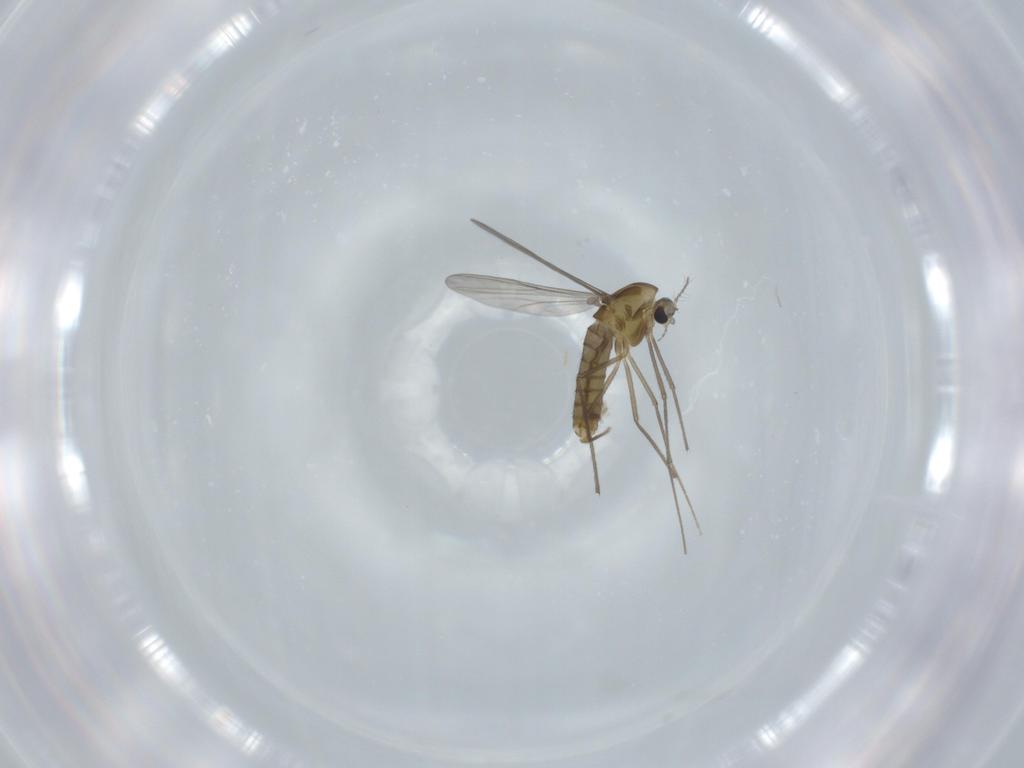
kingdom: Animalia
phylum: Arthropoda
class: Insecta
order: Diptera
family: Chironomidae
